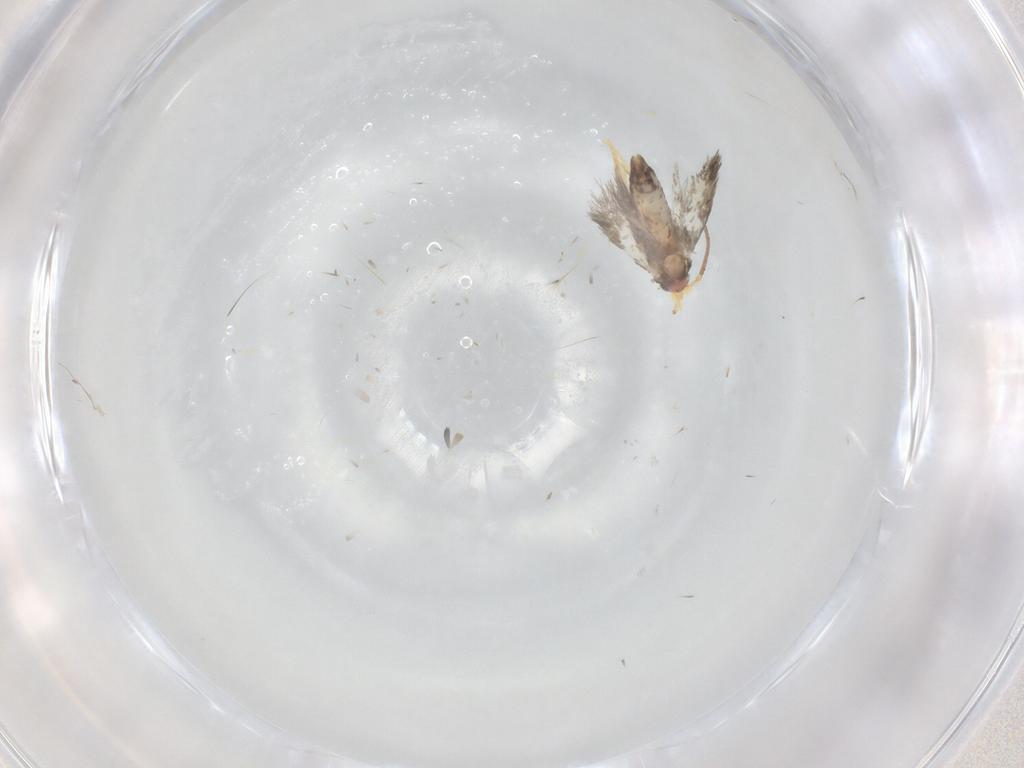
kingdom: Animalia
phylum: Arthropoda
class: Insecta
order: Lepidoptera
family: Nepticulidae
